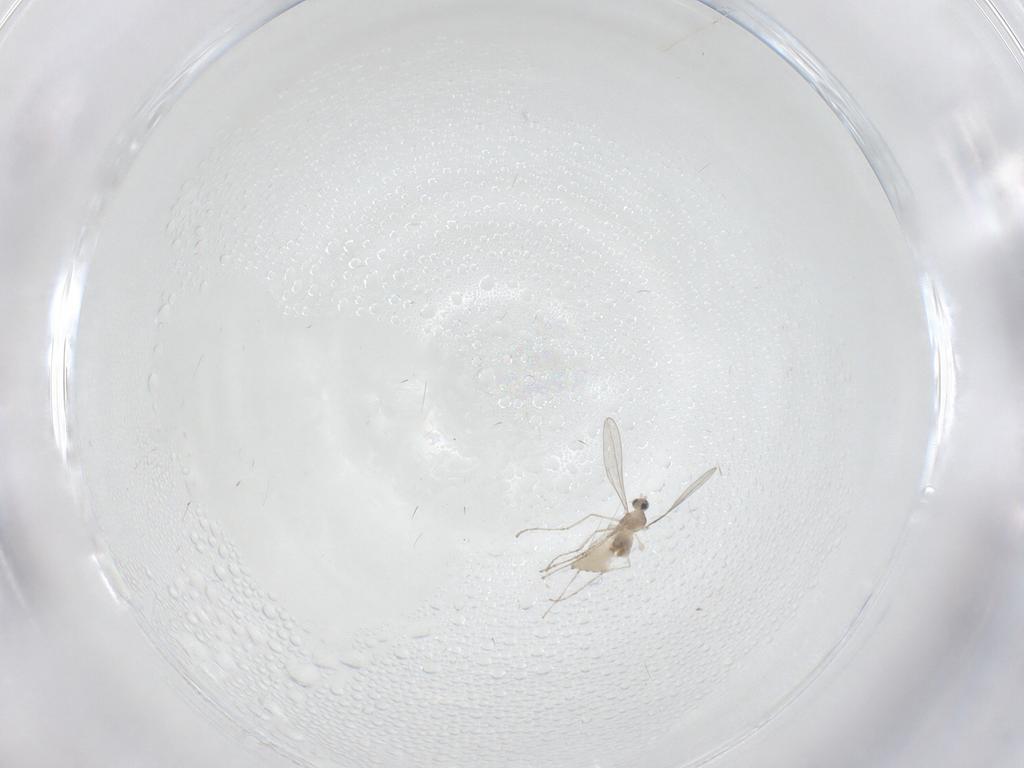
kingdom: Animalia
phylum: Arthropoda
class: Insecta
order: Diptera
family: Cecidomyiidae
